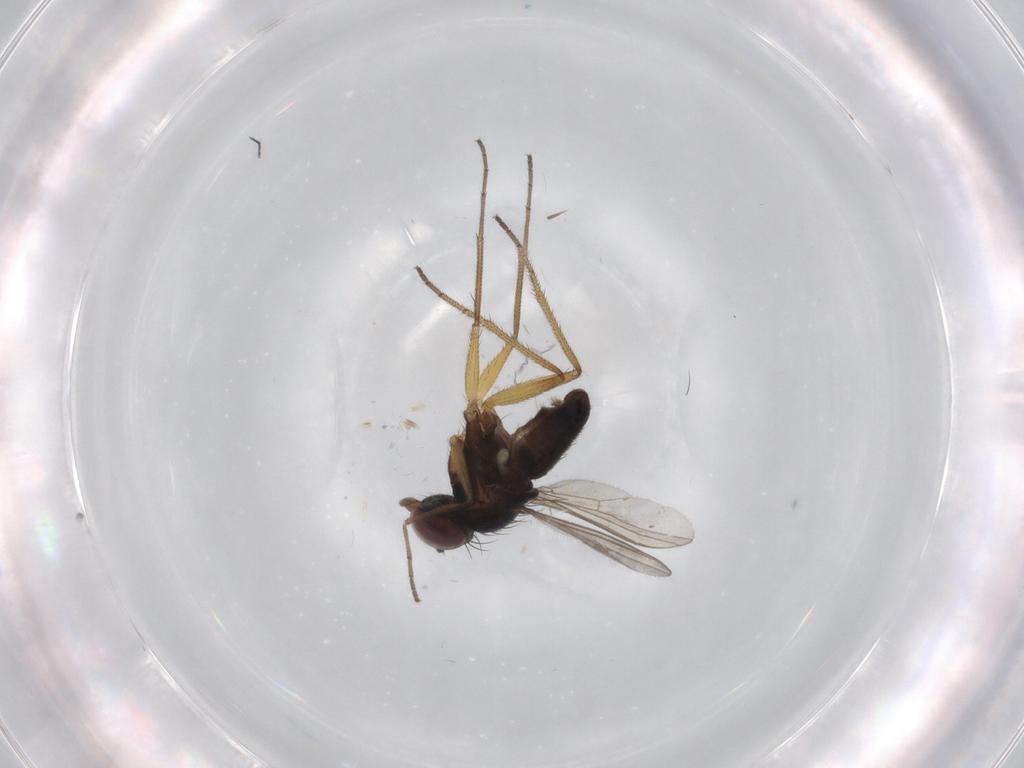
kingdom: Animalia
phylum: Arthropoda
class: Insecta
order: Diptera
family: Dolichopodidae
